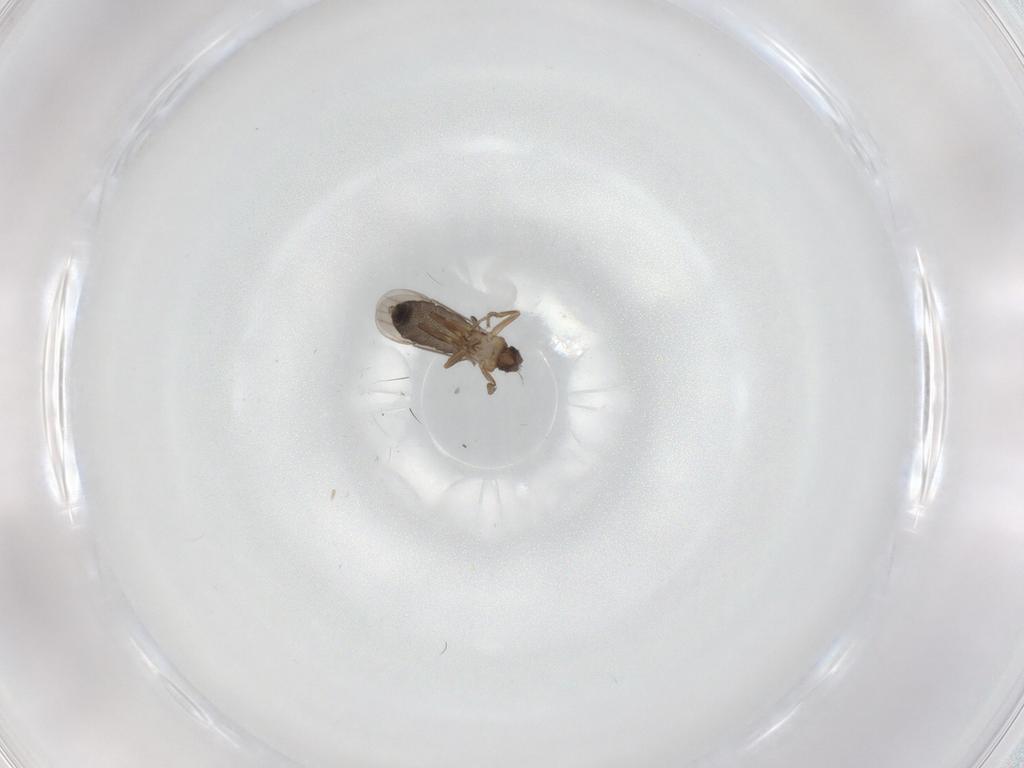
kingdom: Animalia
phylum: Arthropoda
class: Insecta
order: Diptera
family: Phoridae
